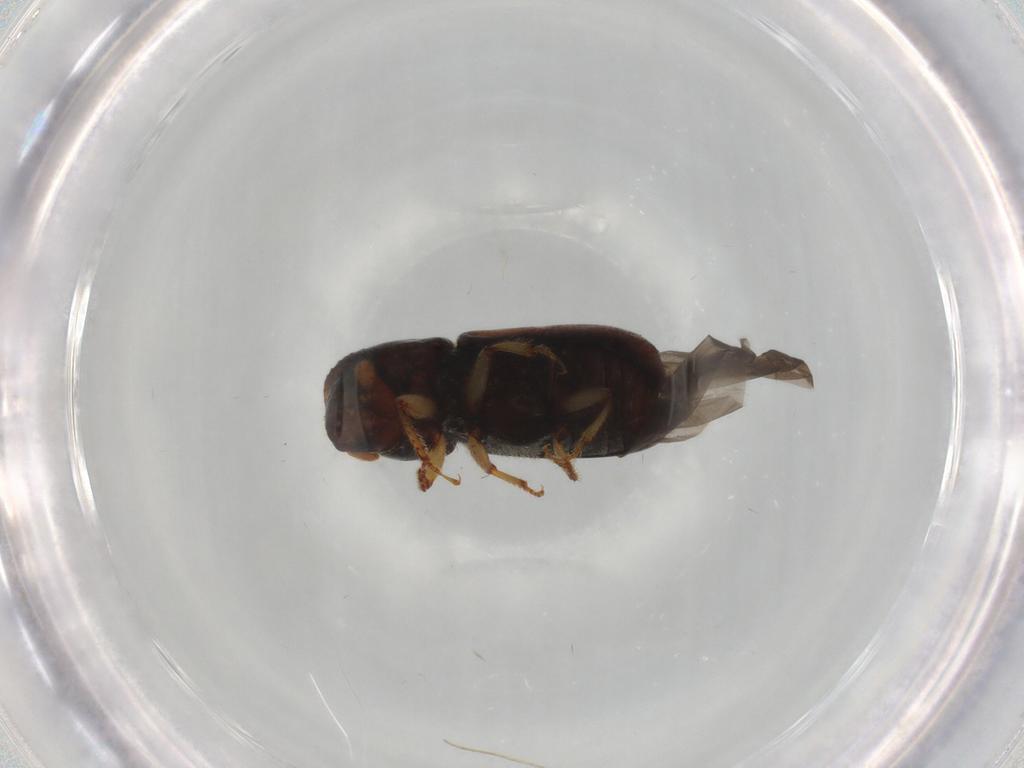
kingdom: Animalia
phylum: Arthropoda
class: Insecta
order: Coleoptera
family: Curculionidae
